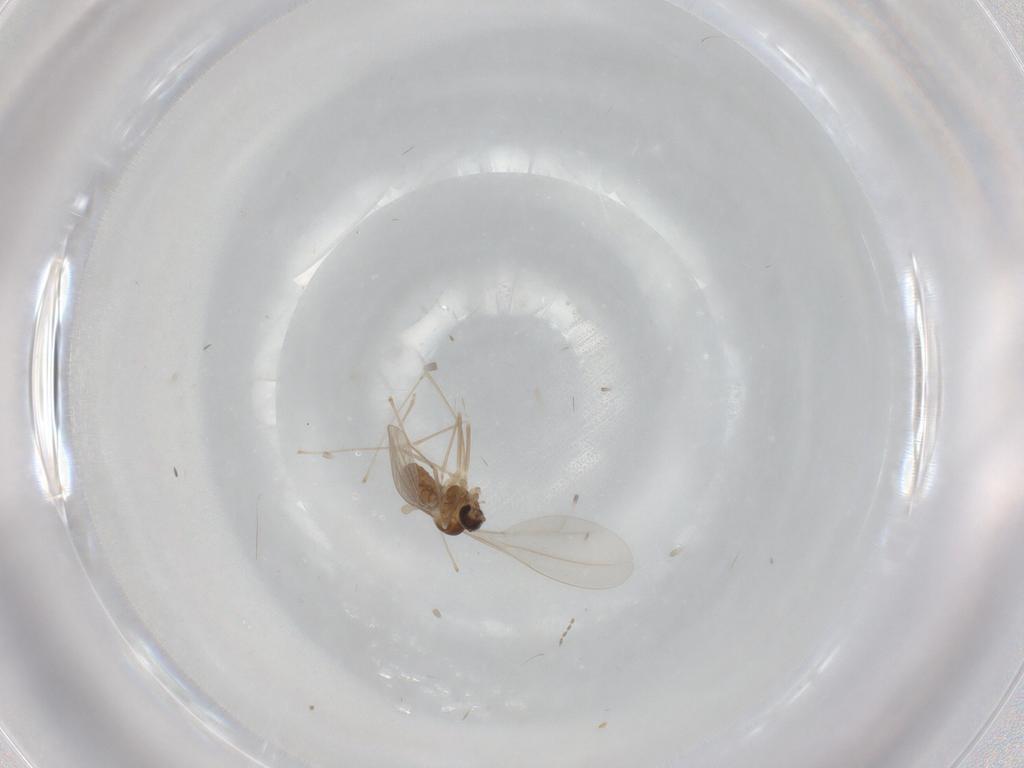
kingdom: Animalia
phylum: Arthropoda
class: Insecta
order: Diptera
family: Cecidomyiidae
